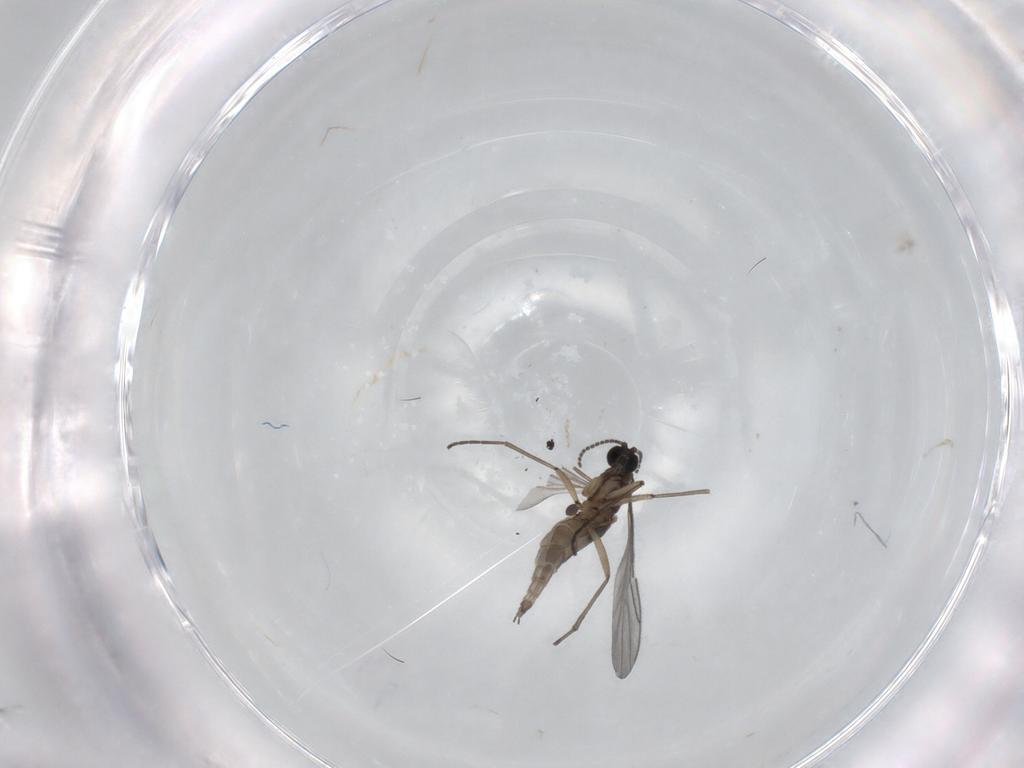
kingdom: Animalia
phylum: Arthropoda
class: Insecta
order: Diptera
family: Sciaridae
